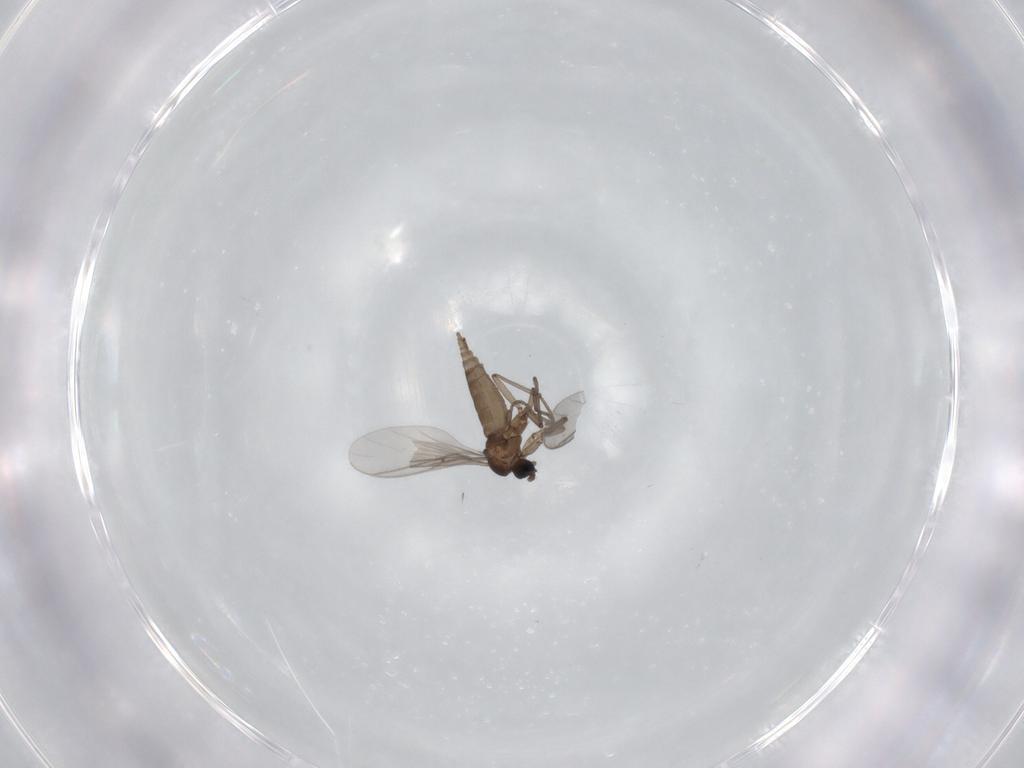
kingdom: Animalia
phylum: Arthropoda
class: Insecta
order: Diptera
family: Sciaridae
